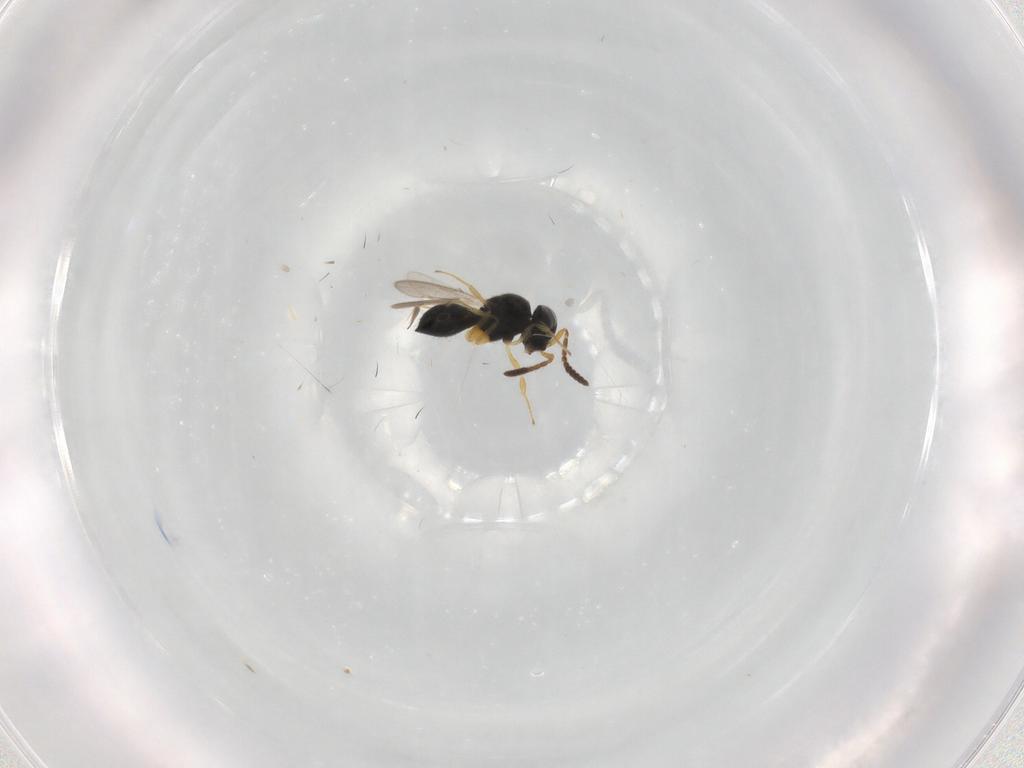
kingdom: Animalia
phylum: Arthropoda
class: Insecta
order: Hymenoptera
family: Scelionidae
